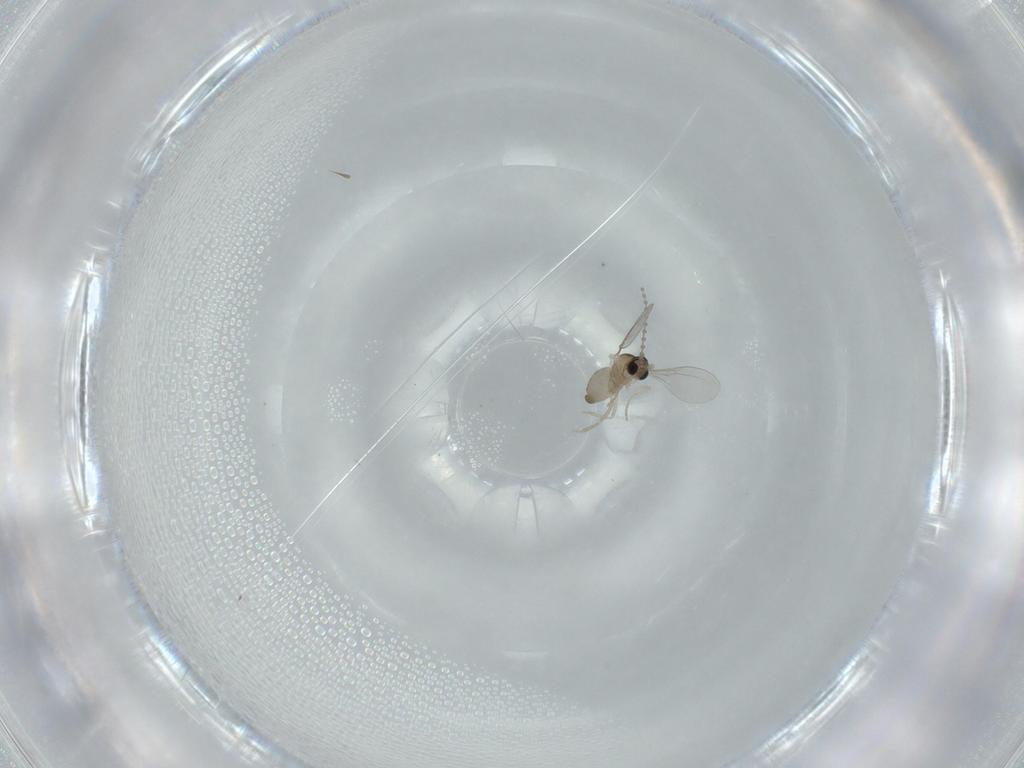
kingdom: Animalia
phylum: Arthropoda
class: Insecta
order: Diptera
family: Cecidomyiidae
